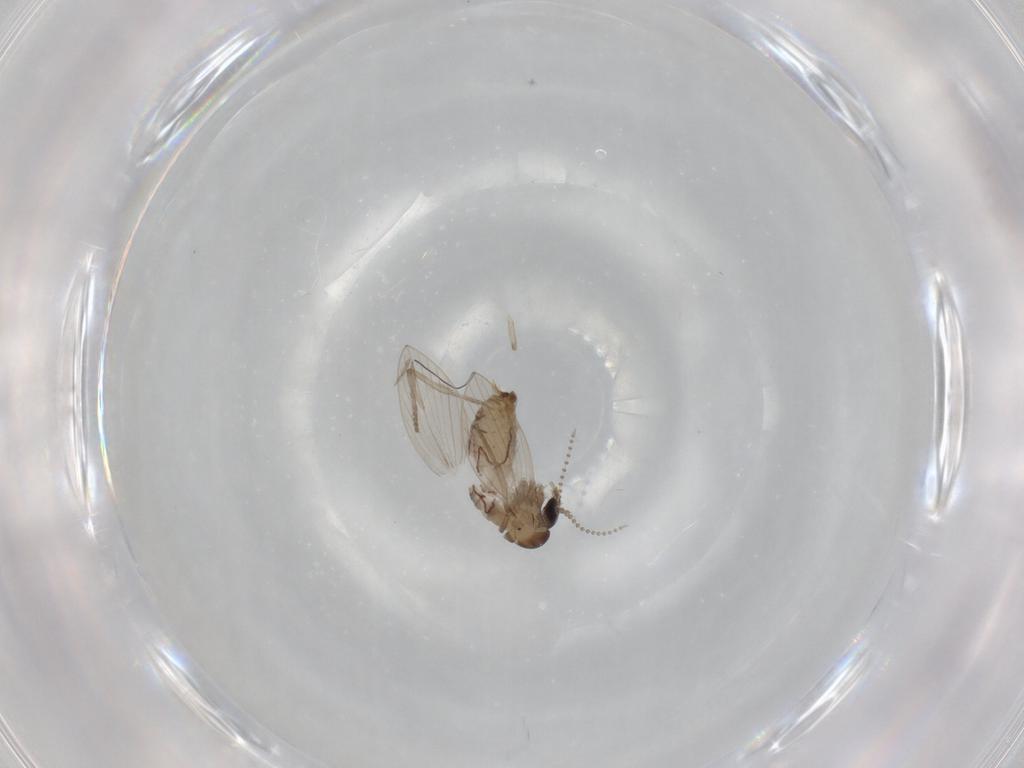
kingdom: Animalia
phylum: Arthropoda
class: Insecta
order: Diptera
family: Psychodidae
